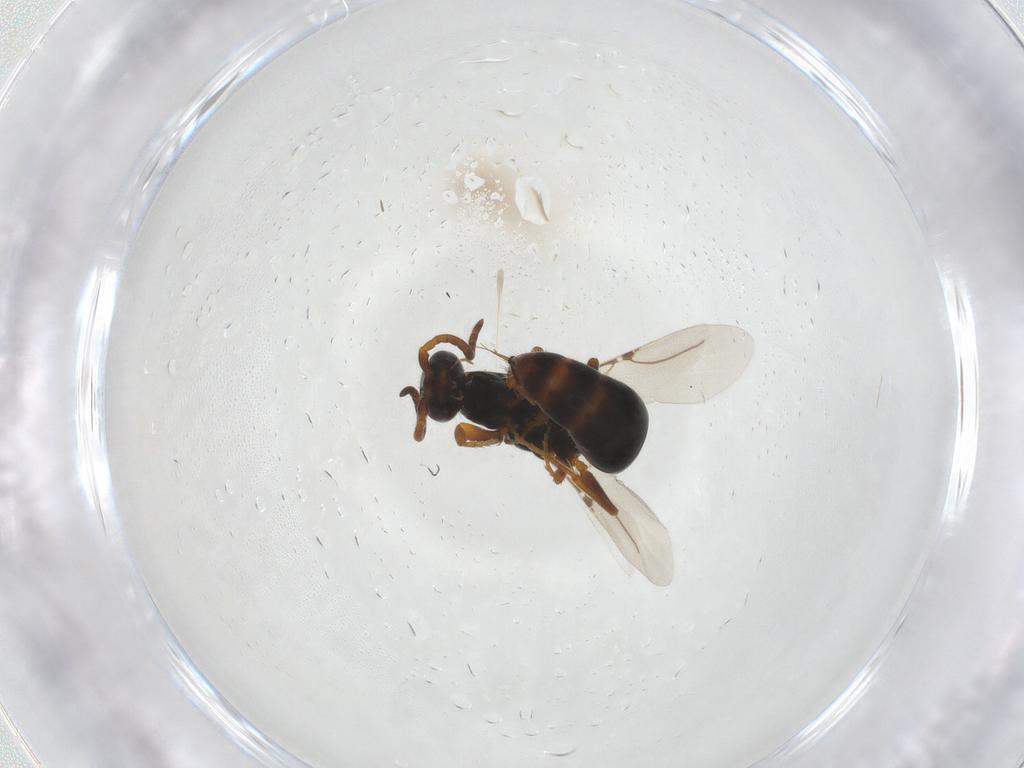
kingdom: Animalia
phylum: Arthropoda
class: Insecta
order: Hymenoptera
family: Bethylidae
